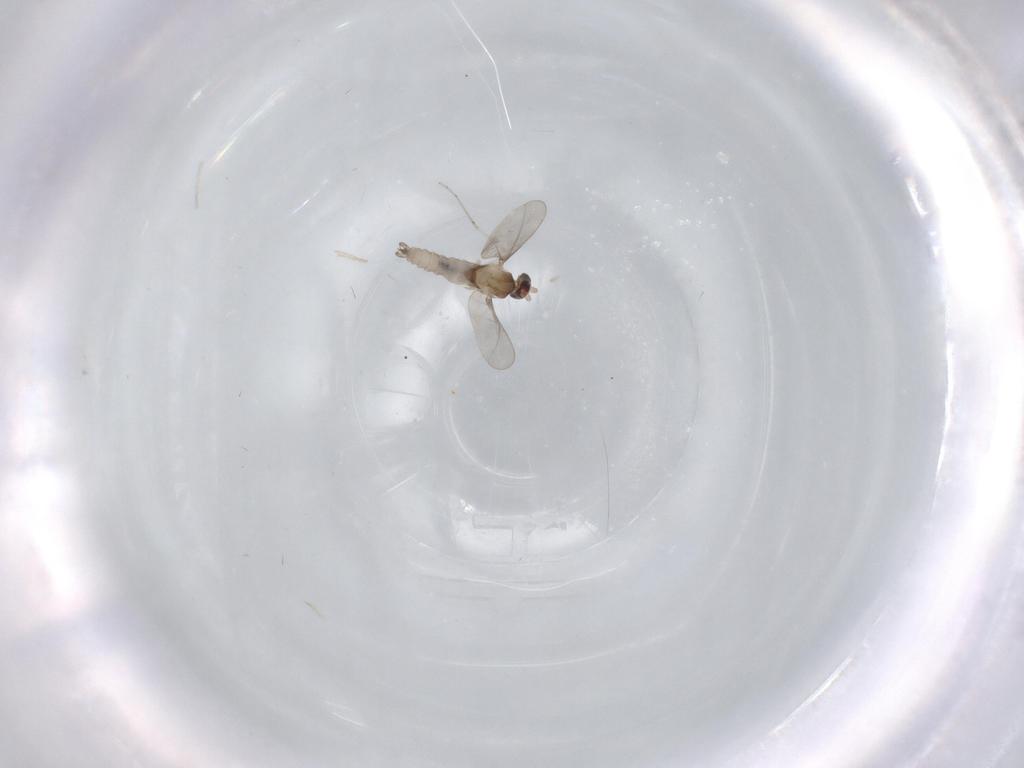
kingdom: Animalia
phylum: Arthropoda
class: Insecta
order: Diptera
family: Cecidomyiidae
